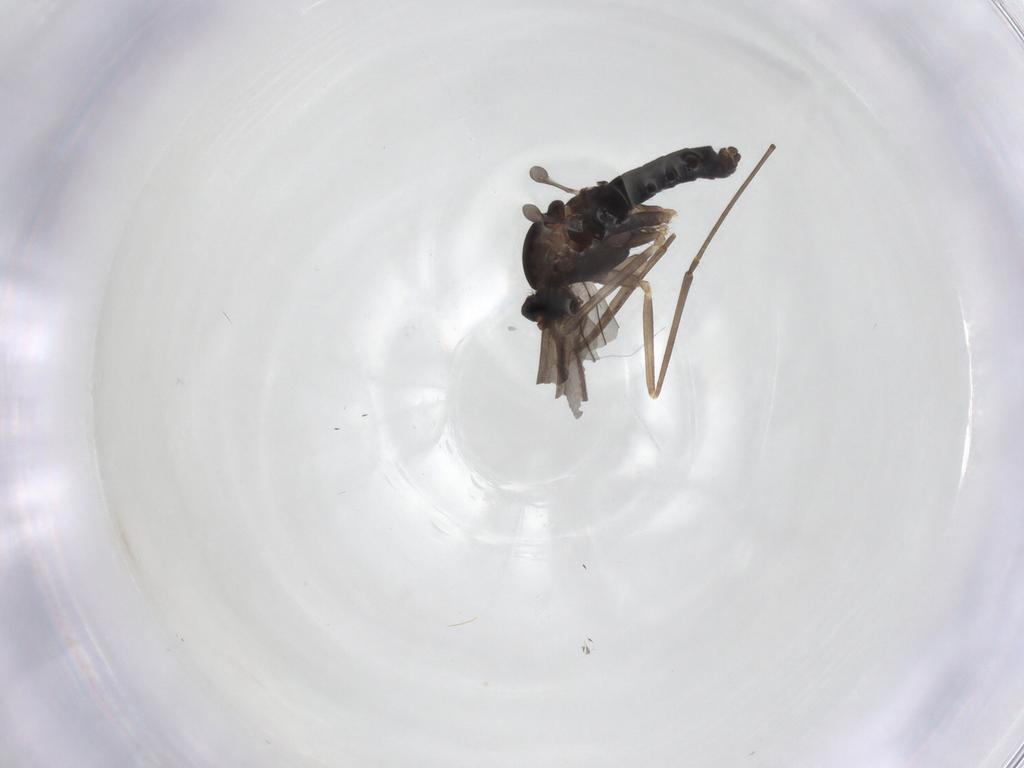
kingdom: Animalia
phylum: Arthropoda
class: Insecta
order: Diptera
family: Cecidomyiidae
